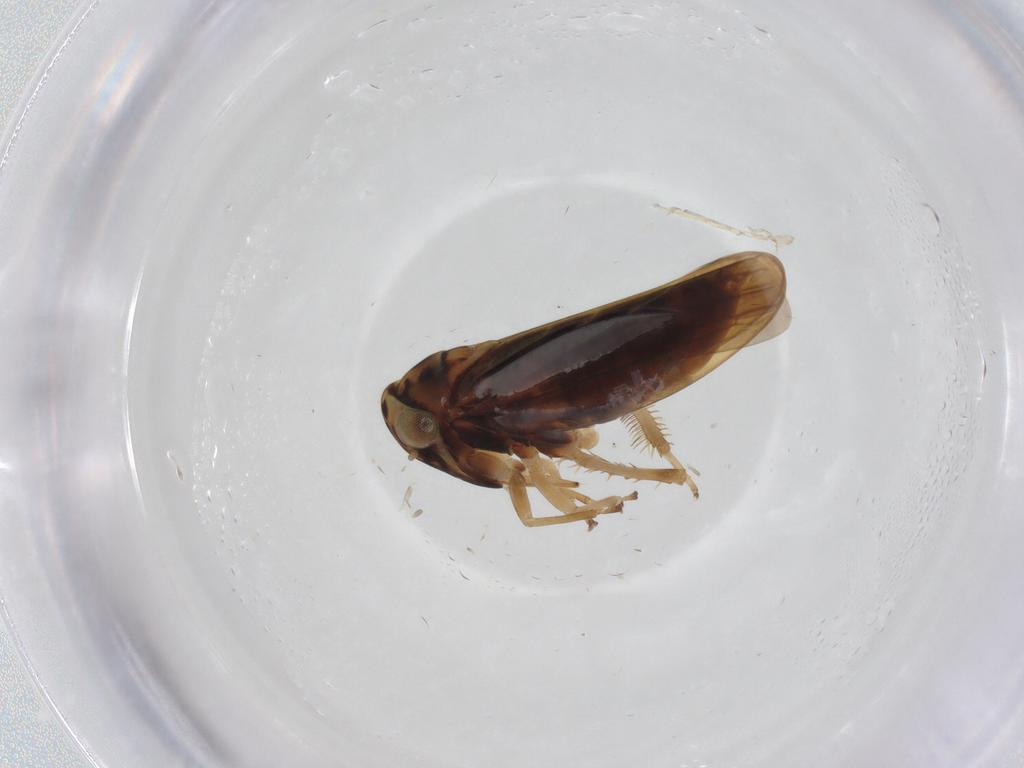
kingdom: Animalia
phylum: Arthropoda
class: Insecta
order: Hemiptera
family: Cicadellidae
